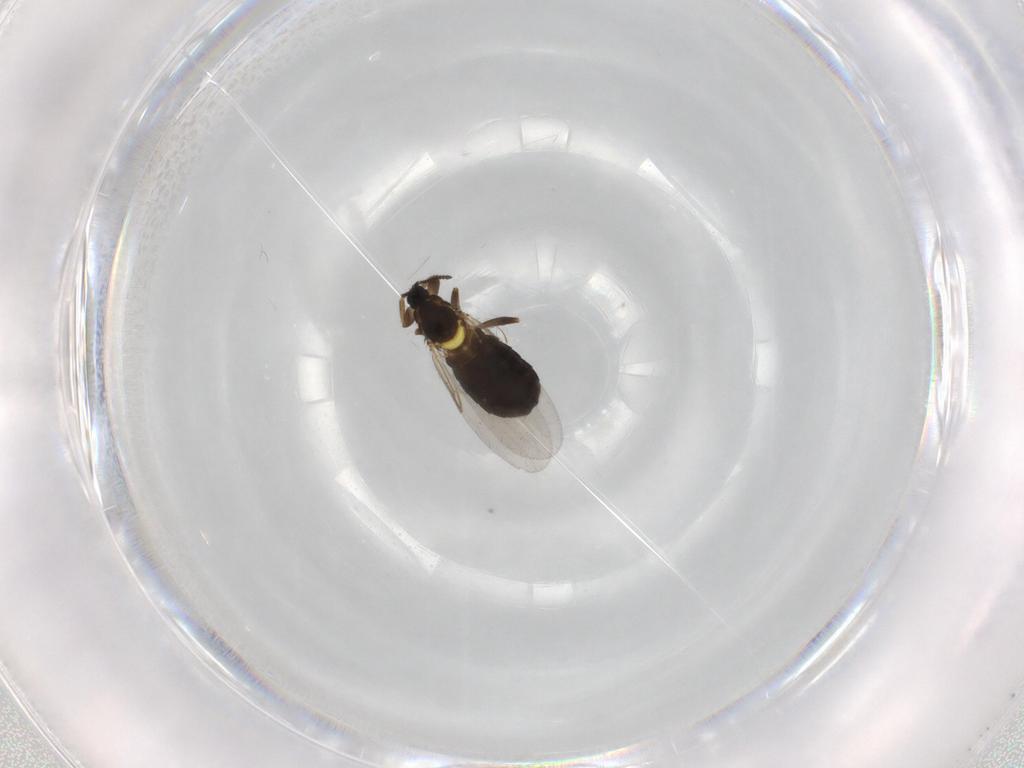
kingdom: Animalia
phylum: Arthropoda
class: Insecta
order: Diptera
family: Scatopsidae
